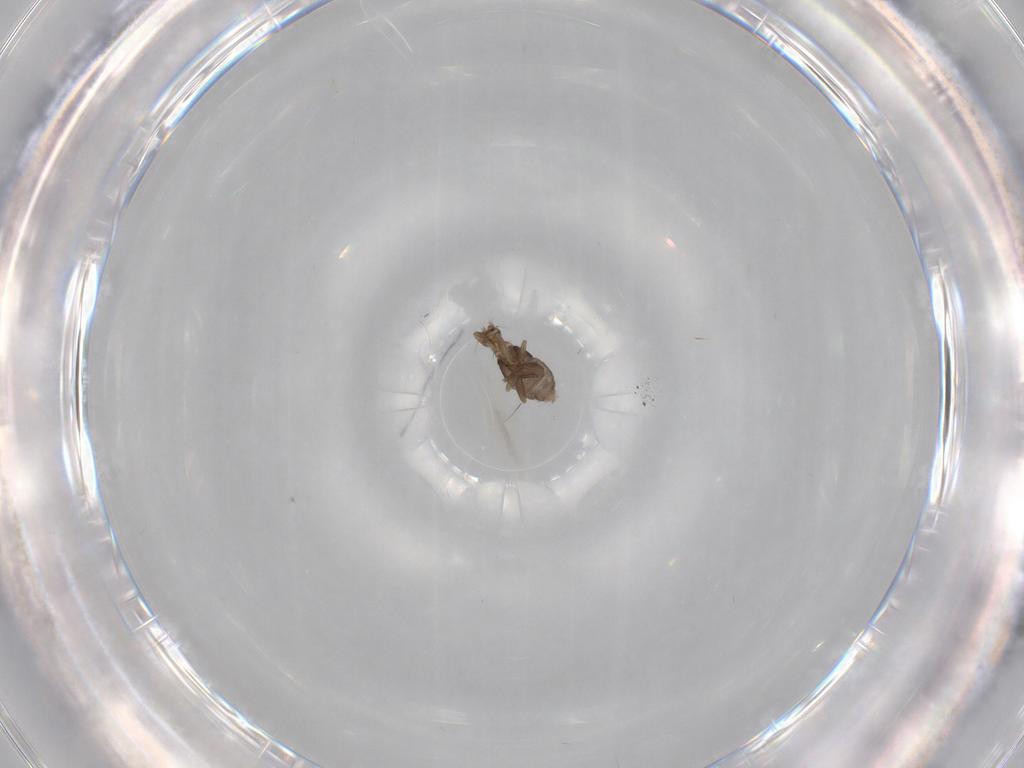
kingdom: Animalia
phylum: Arthropoda
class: Insecta
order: Diptera
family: Phoridae
